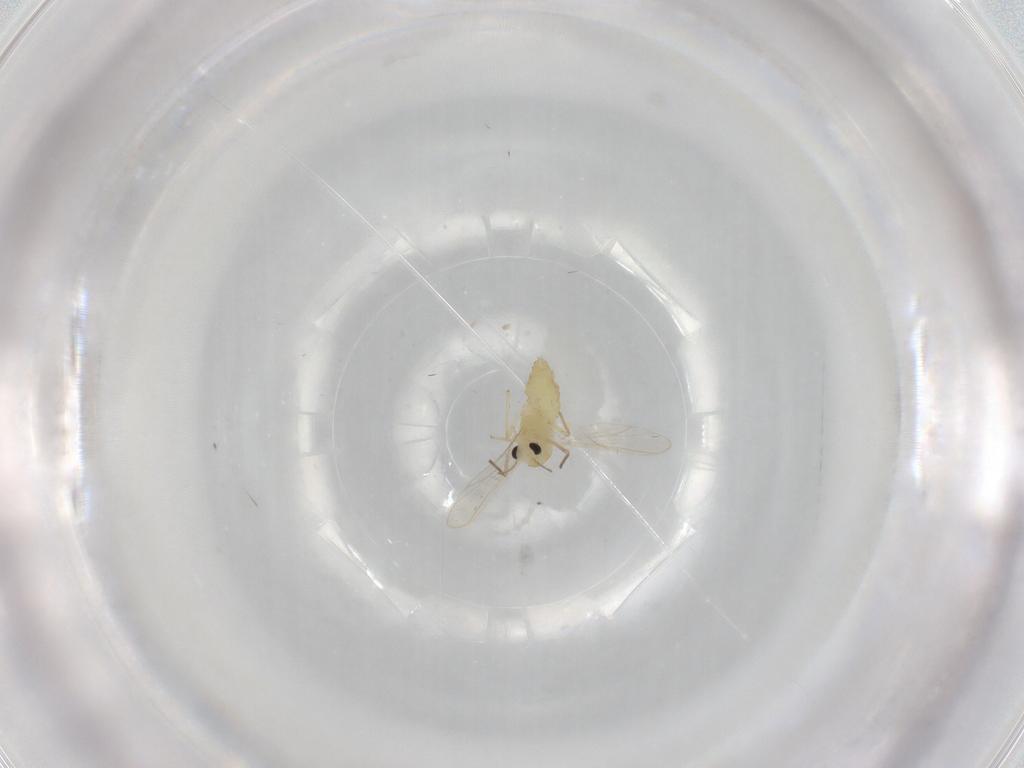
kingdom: Animalia
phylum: Arthropoda
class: Insecta
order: Diptera
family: Chironomidae
